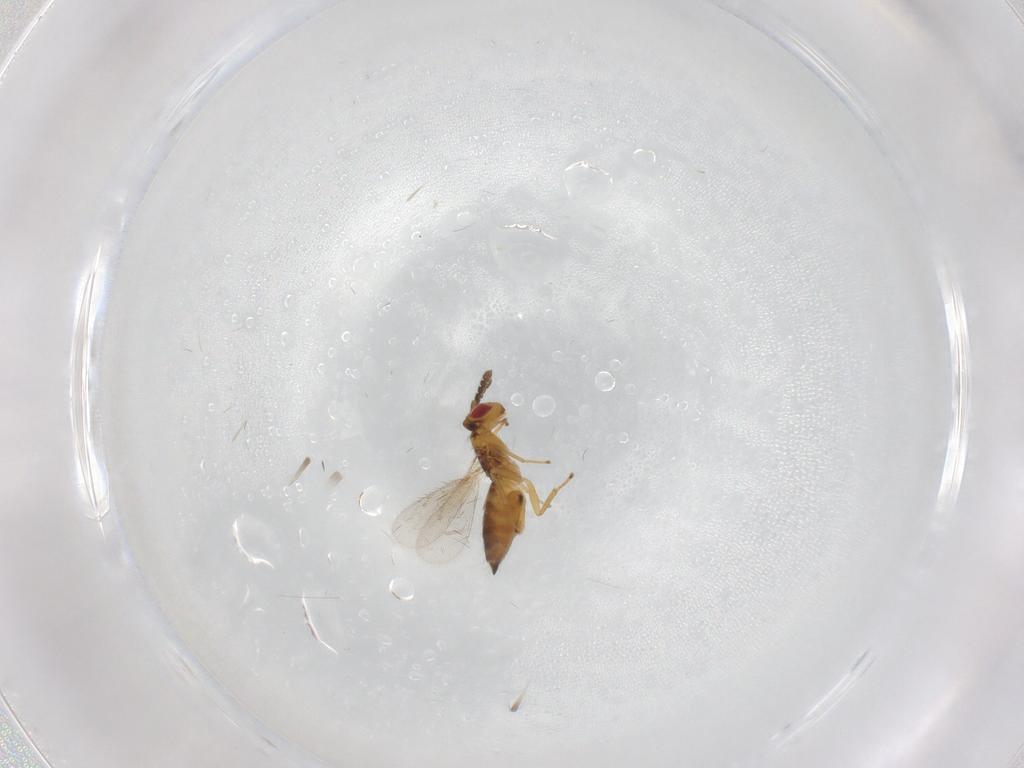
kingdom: Animalia
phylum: Arthropoda
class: Insecta
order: Hymenoptera
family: Eulophidae
